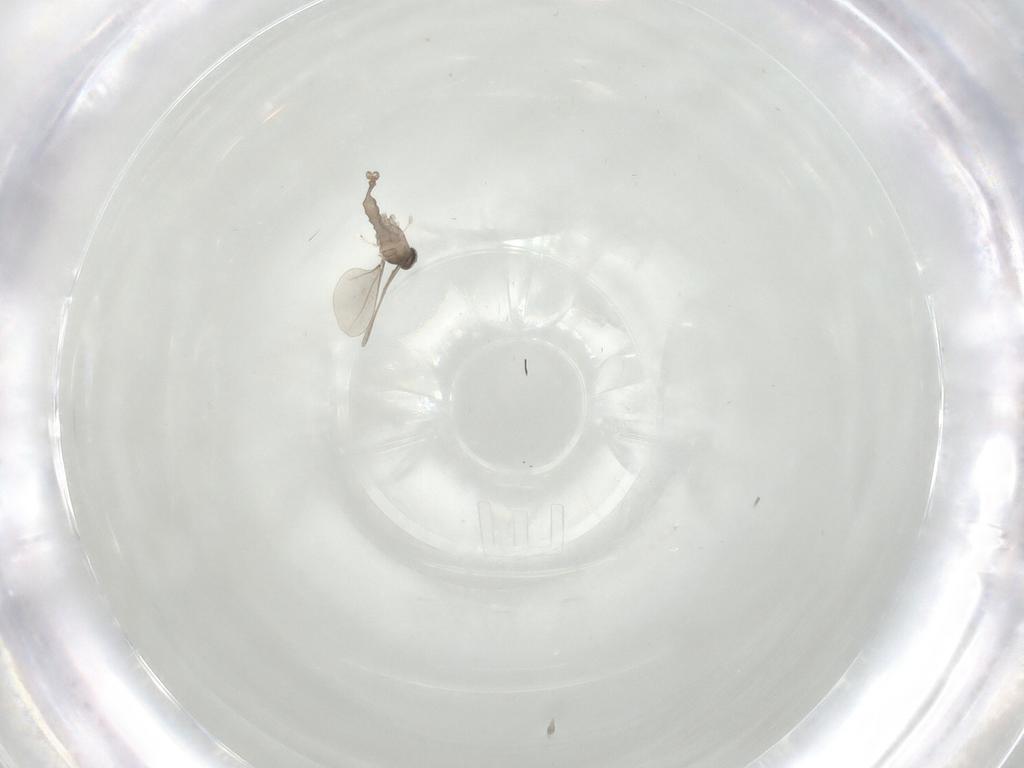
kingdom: Animalia
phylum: Arthropoda
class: Insecta
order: Diptera
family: Cecidomyiidae
